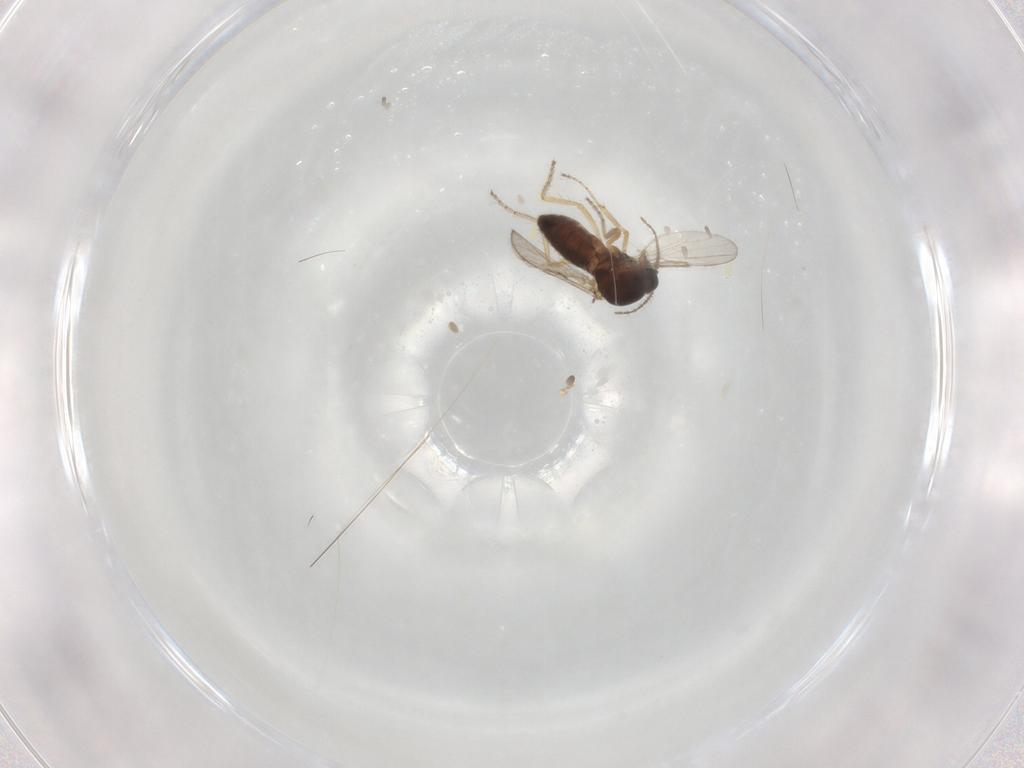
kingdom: Animalia
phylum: Arthropoda
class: Insecta
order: Diptera
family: Ceratopogonidae
